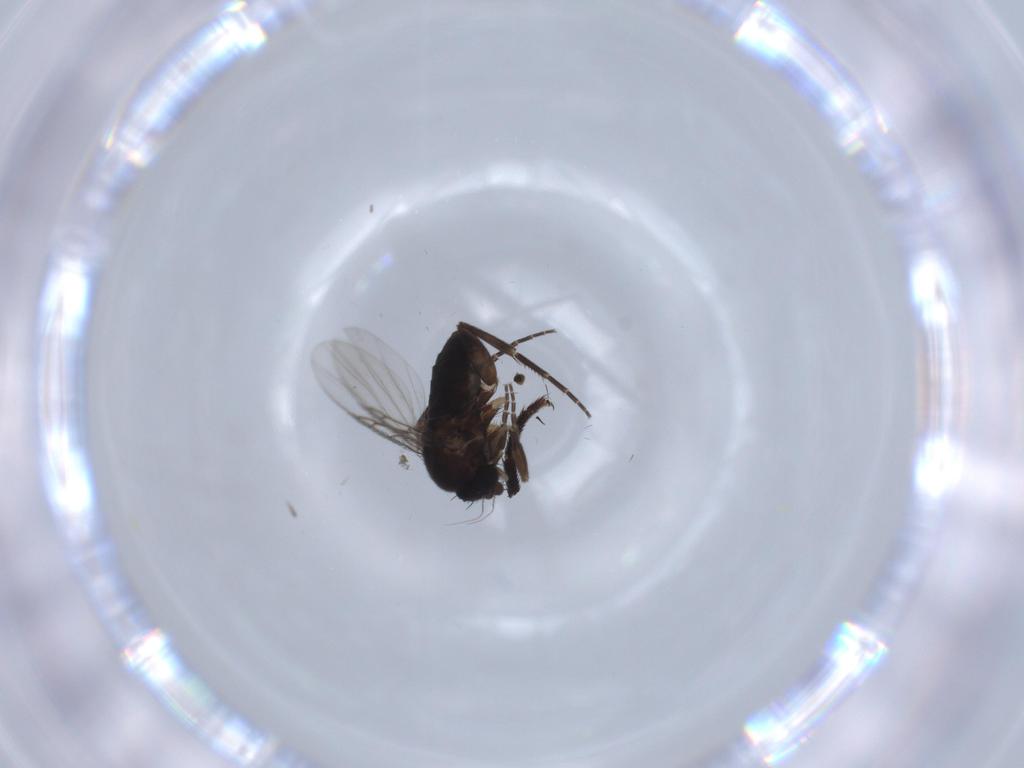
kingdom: Animalia
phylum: Arthropoda
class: Insecta
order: Diptera
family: Phoridae
